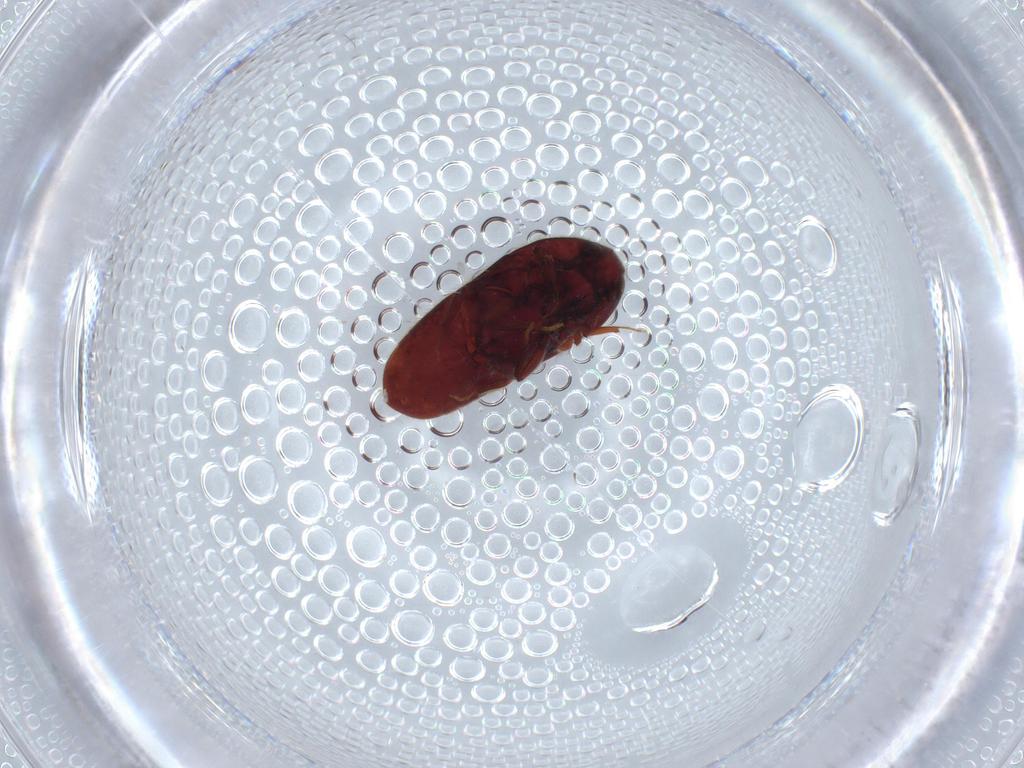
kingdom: Animalia
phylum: Arthropoda
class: Insecta
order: Coleoptera
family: Throscidae
